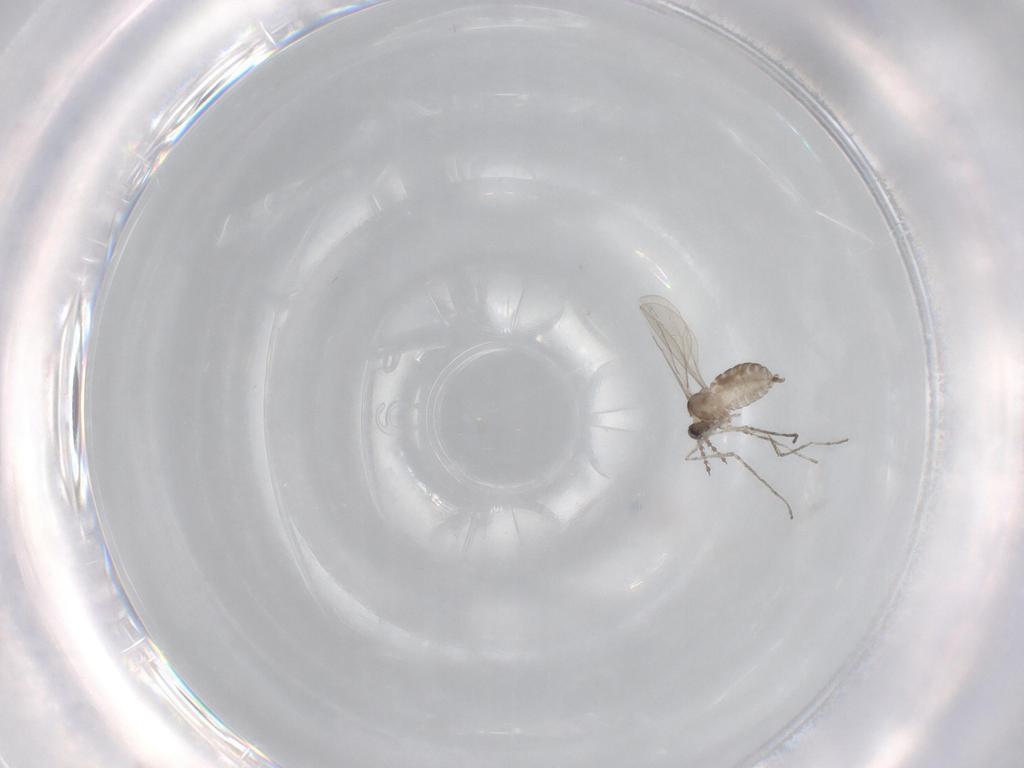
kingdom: Animalia
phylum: Arthropoda
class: Insecta
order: Diptera
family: Cecidomyiidae
